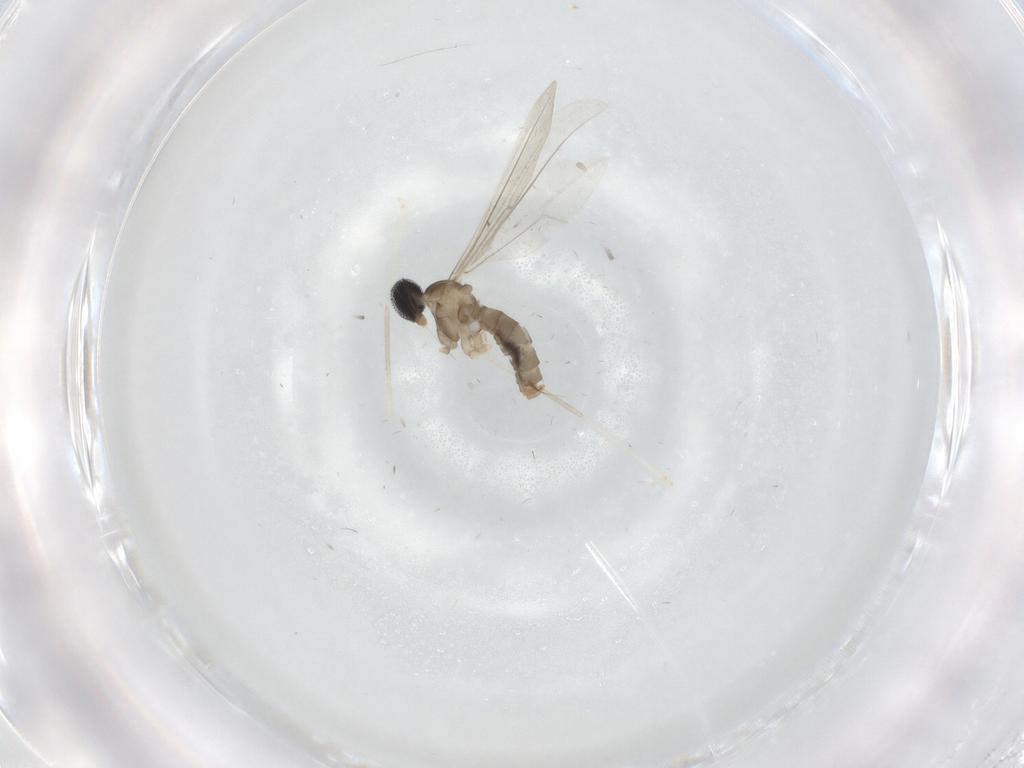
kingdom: Animalia
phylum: Arthropoda
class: Insecta
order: Diptera
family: Cecidomyiidae
